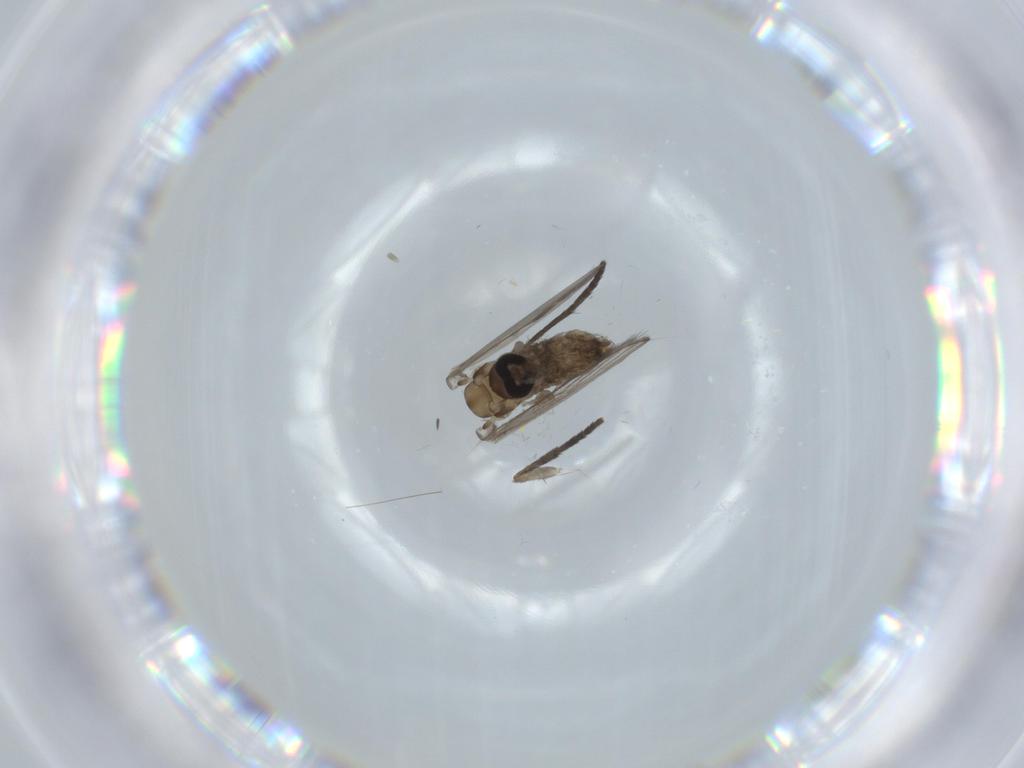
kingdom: Animalia
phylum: Arthropoda
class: Insecta
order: Diptera
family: Psychodidae
